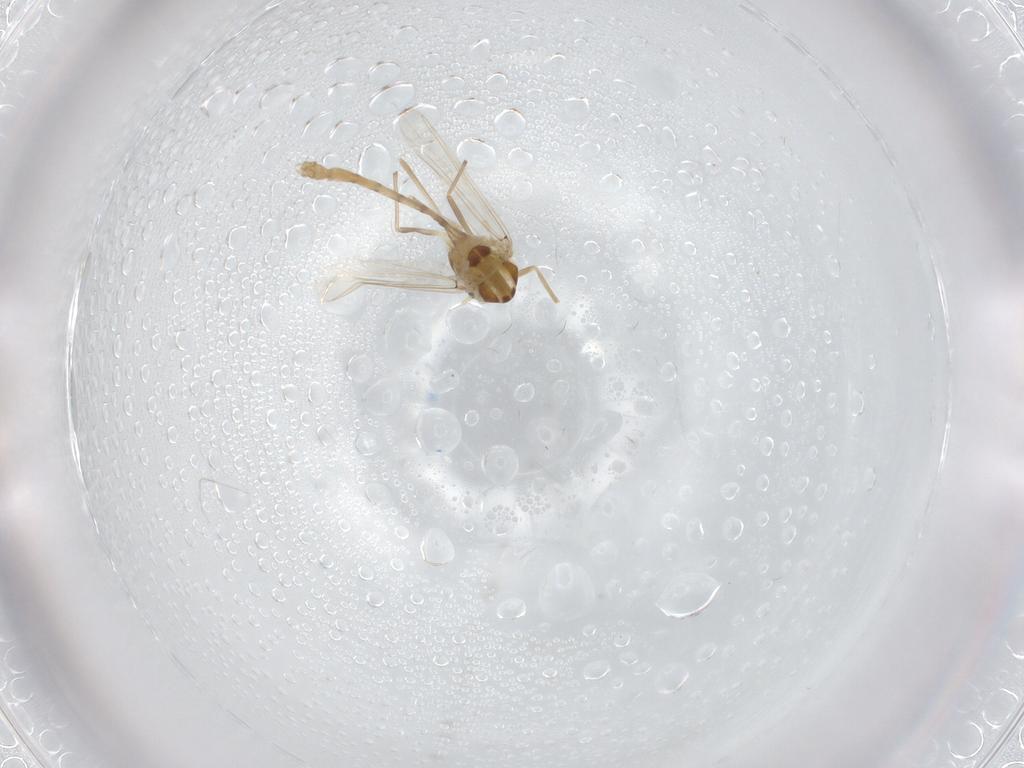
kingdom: Animalia
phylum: Arthropoda
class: Insecta
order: Diptera
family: Chironomidae
